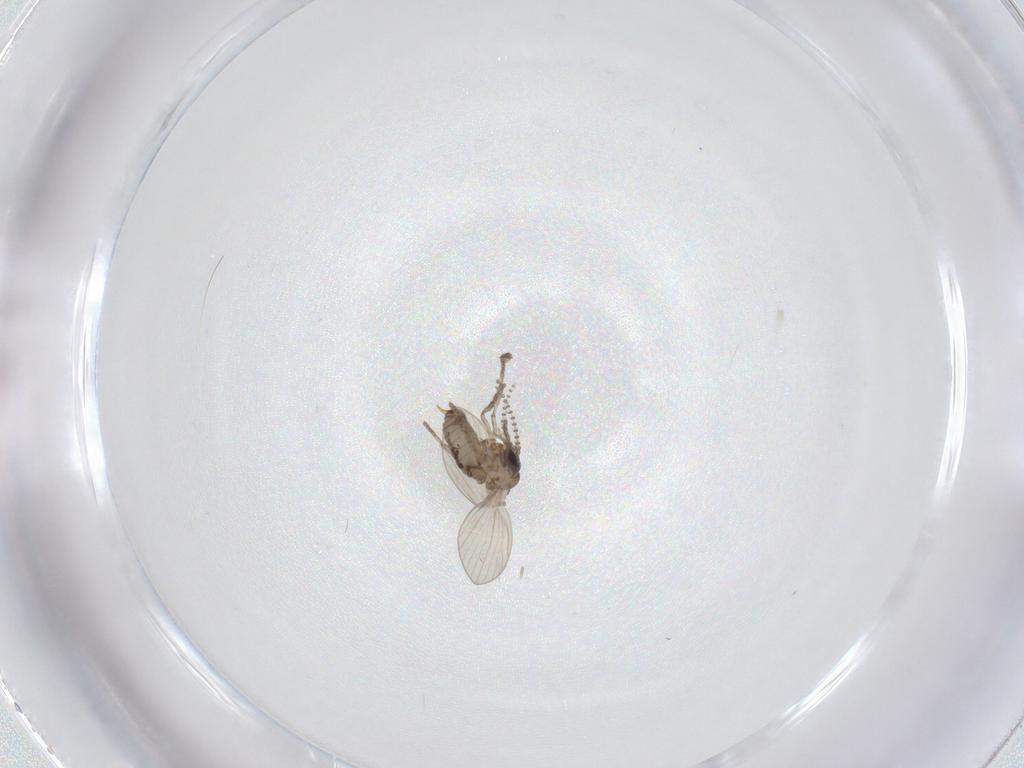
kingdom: Animalia
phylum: Arthropoda
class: Insecta
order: Diptera
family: Psychodidae
